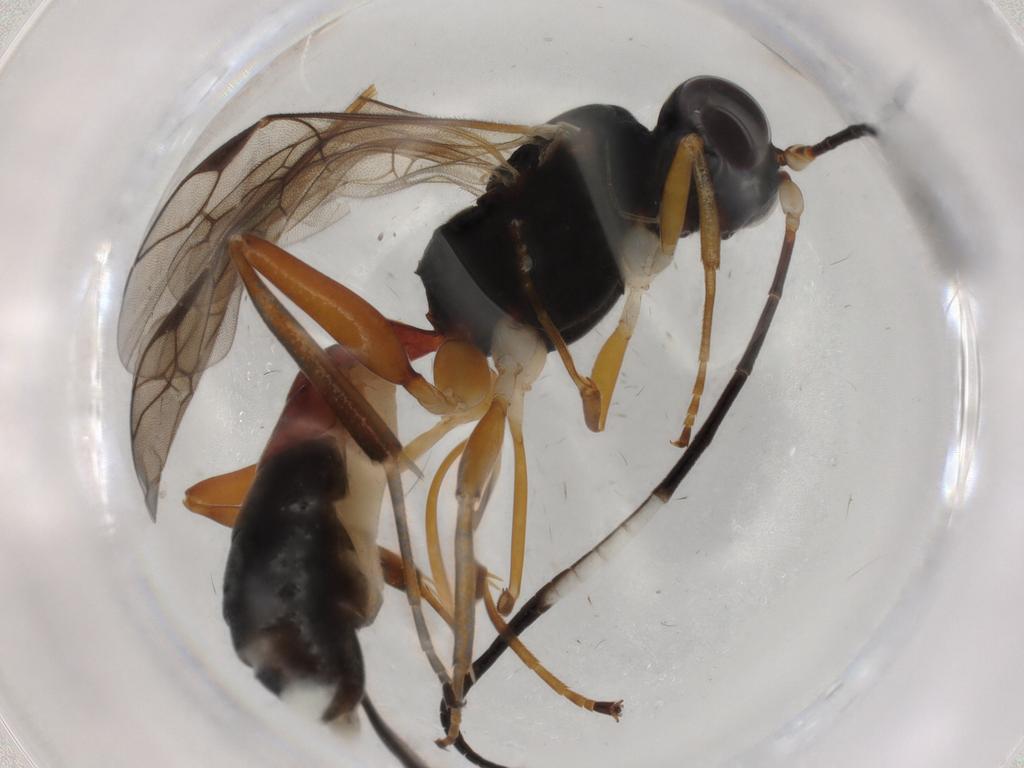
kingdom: Animalia
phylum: Arthropoda
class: Insecta
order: Hymenoptera
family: Ichneumonidae
